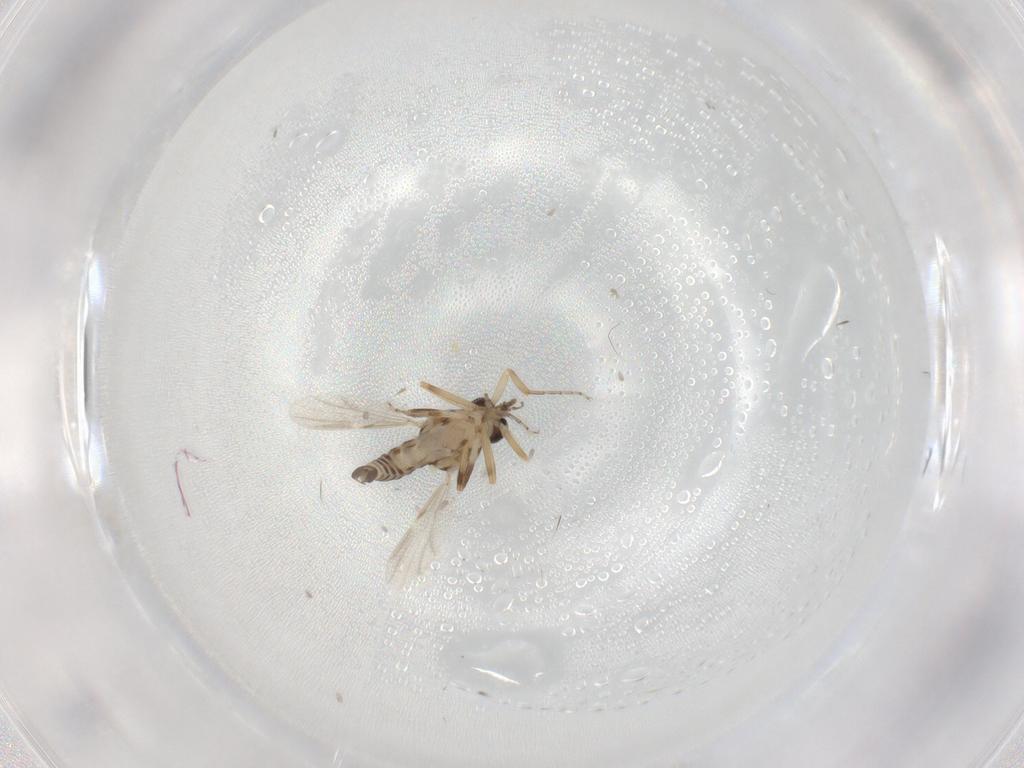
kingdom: Animalia
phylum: Arthropoda
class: Insecta
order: Diptera
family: Ceratopogonidae
